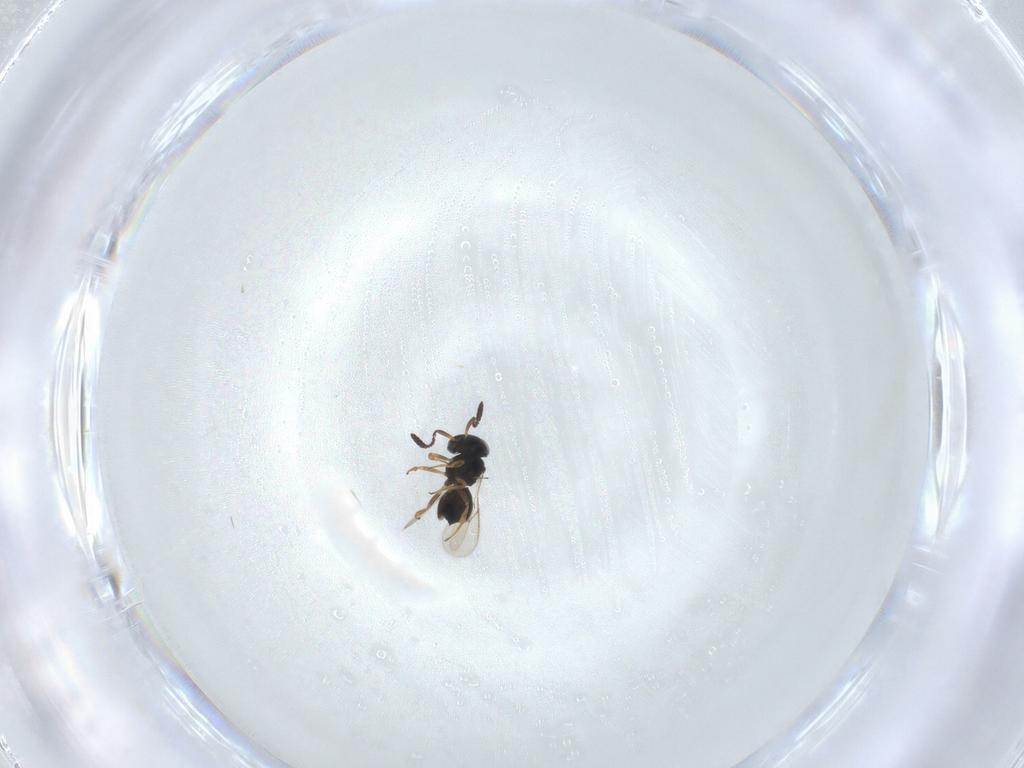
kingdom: Animalia
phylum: Arthropoda
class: Insecta
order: Hymenoptera
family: Scelionidae
